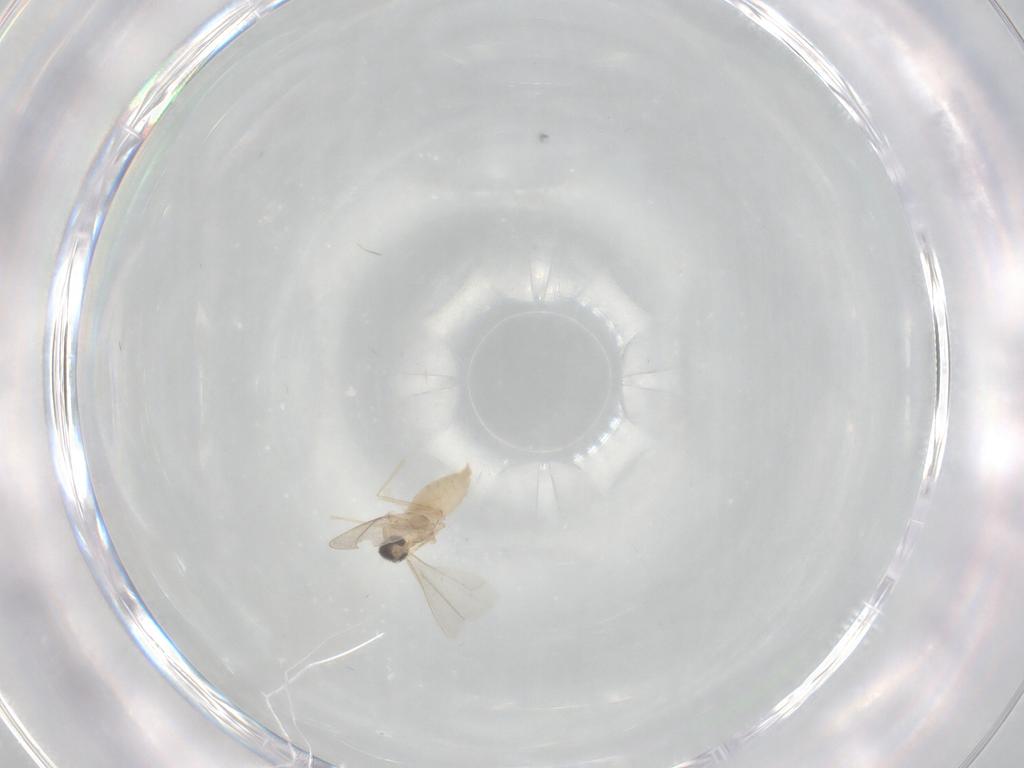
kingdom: Animalia
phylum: Arthropoda
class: Insecta
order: Diptera
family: Cecidomyiidae
